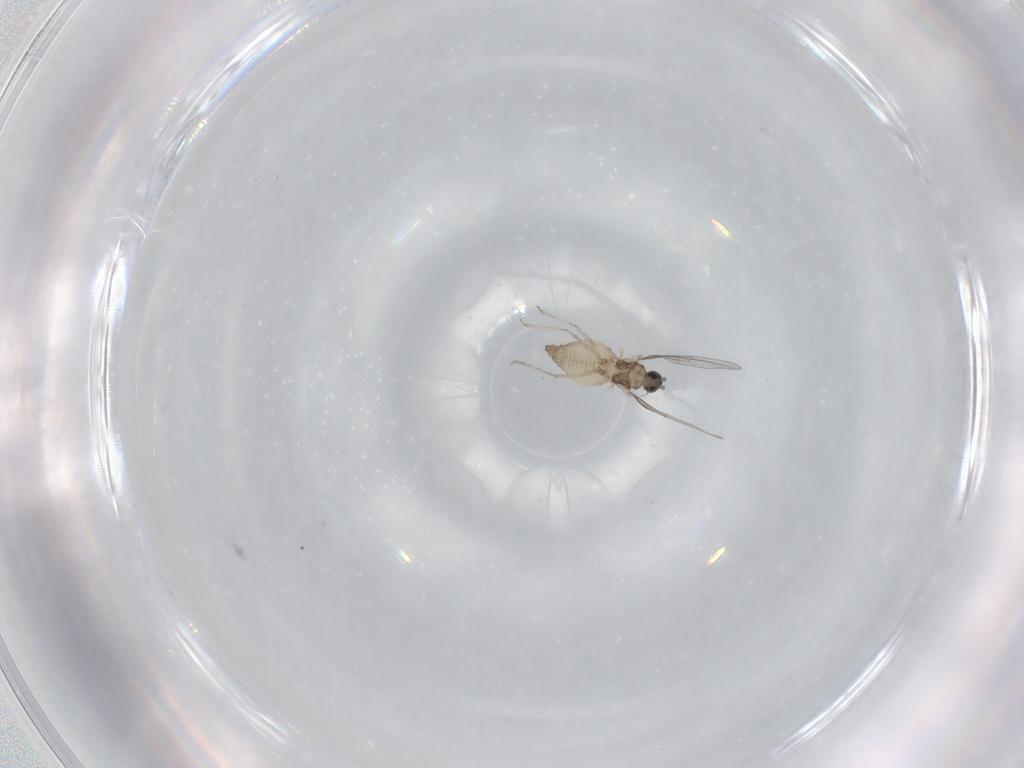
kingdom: Animalia
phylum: Arthropoda
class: Insecta
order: Diptera
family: Cecidomyiidae
